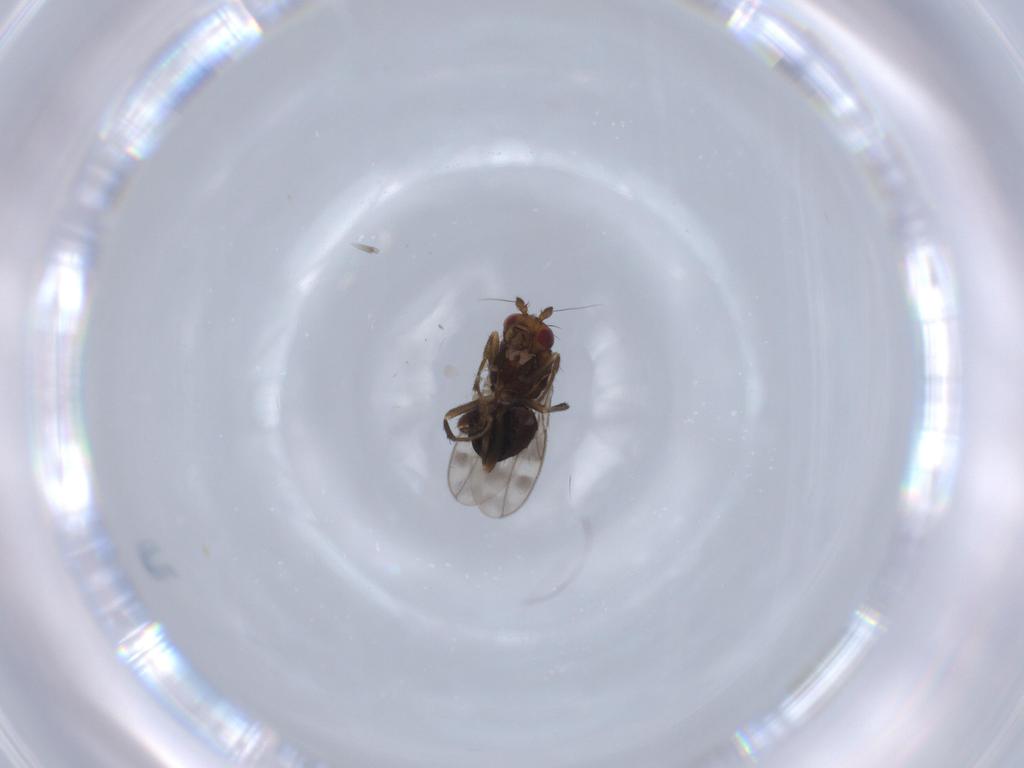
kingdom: Animalia
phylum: Arthropoda
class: Insecta
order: Diptera
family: Sphaeroceridae
